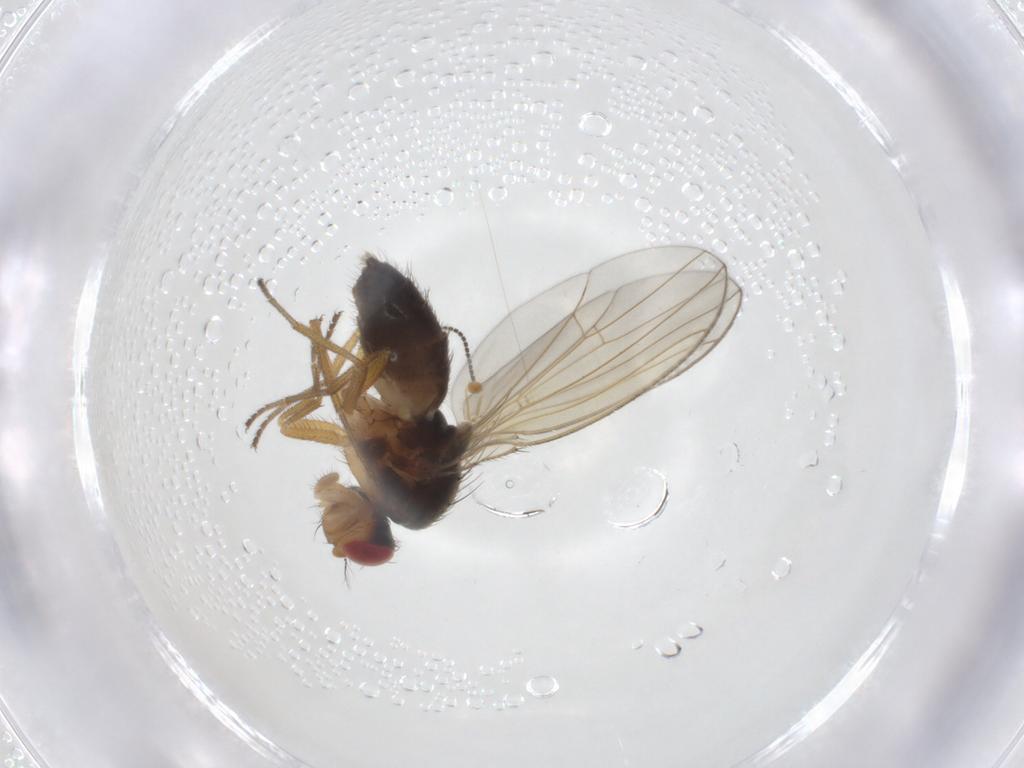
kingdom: Animalia
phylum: Arthropoda
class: Insecta
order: Diptera
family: Drosophilidae
